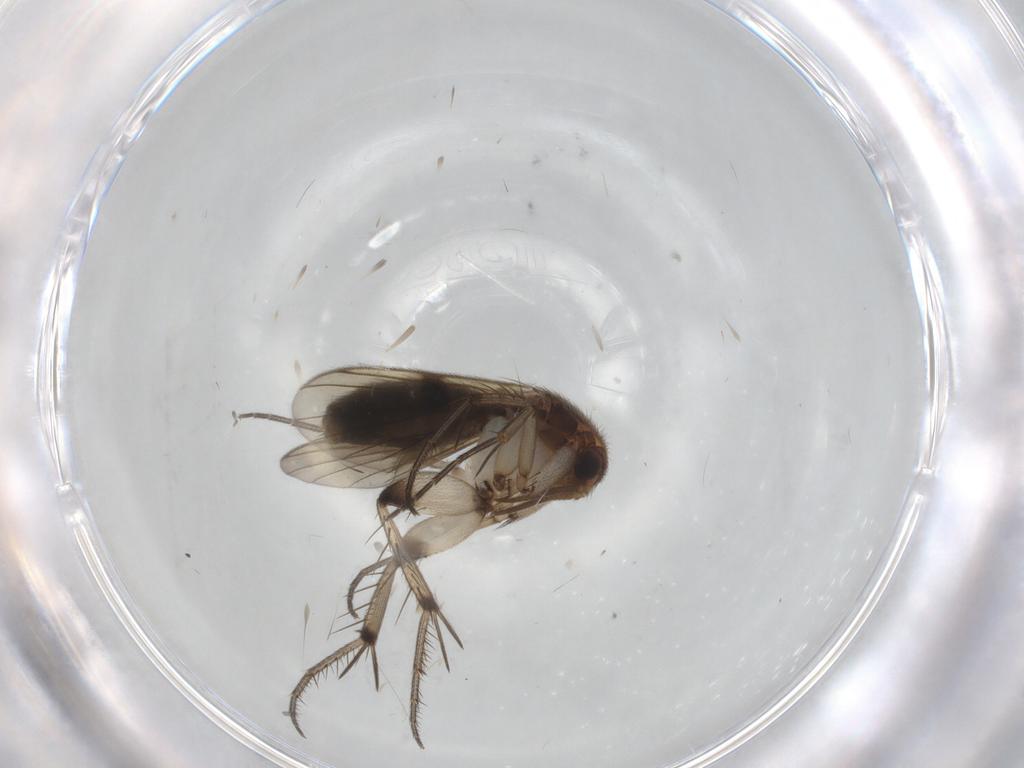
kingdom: Animalia
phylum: Arthropoda
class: Insecta
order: Diptera
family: Mycetophilidae
